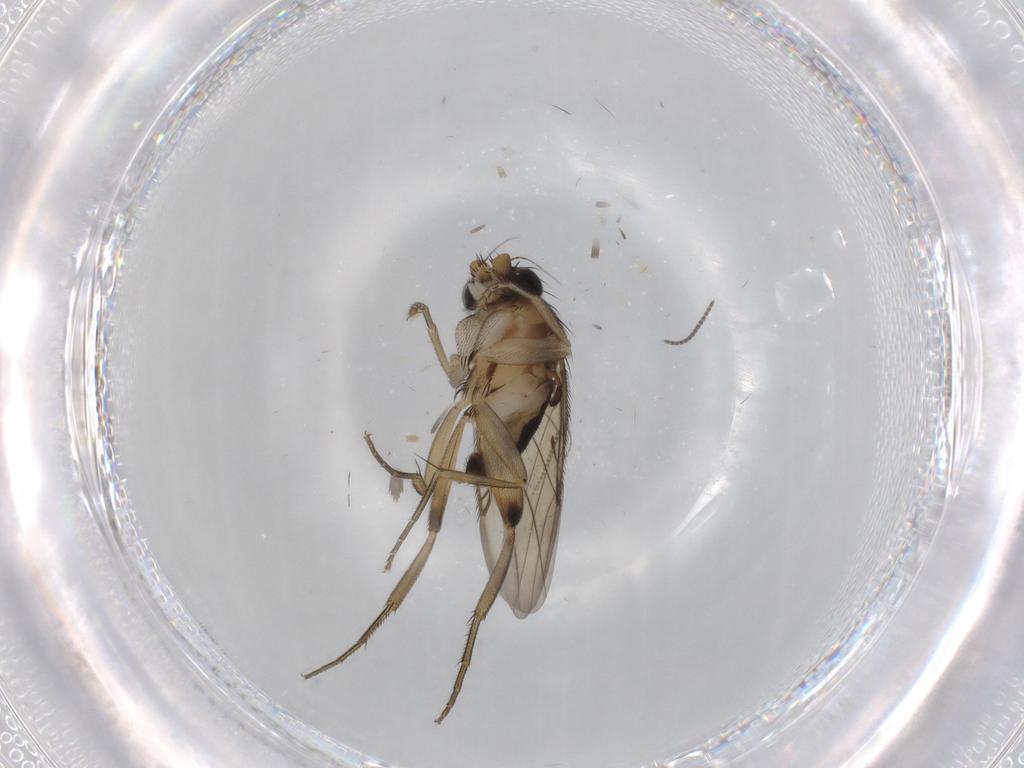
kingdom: Animalia
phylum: Arthropoda
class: Insecta
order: Diptera
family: Phoridae
